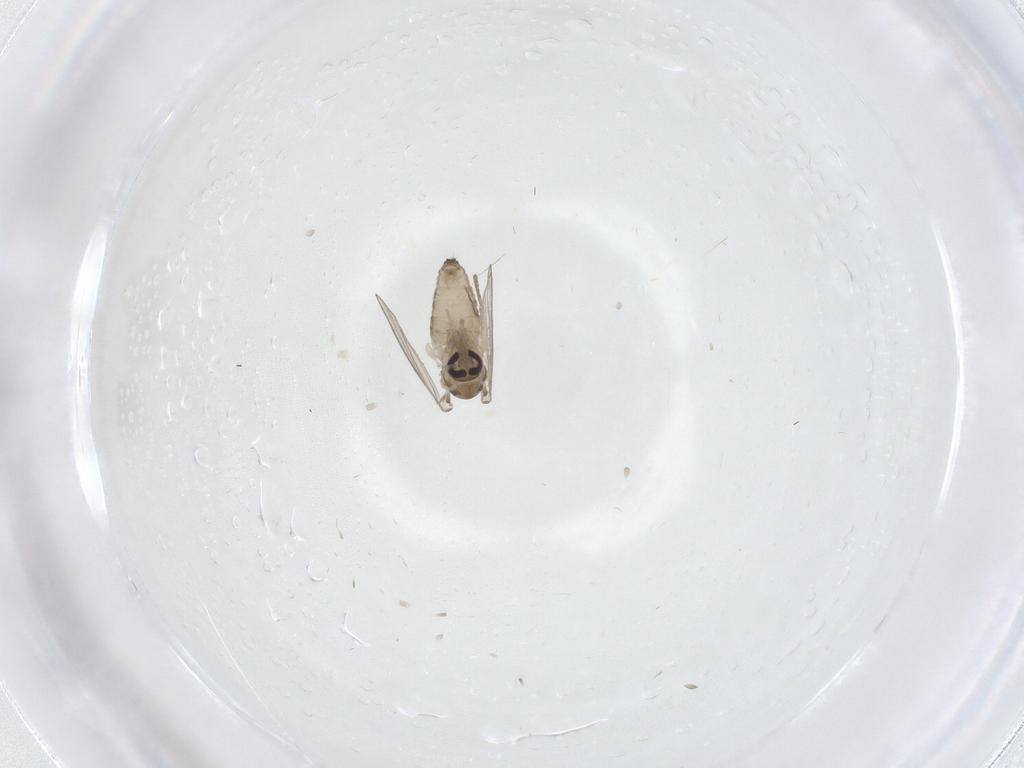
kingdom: Animalia
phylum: Arthropoda
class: Insecta
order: Diptera
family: Psychodidae
